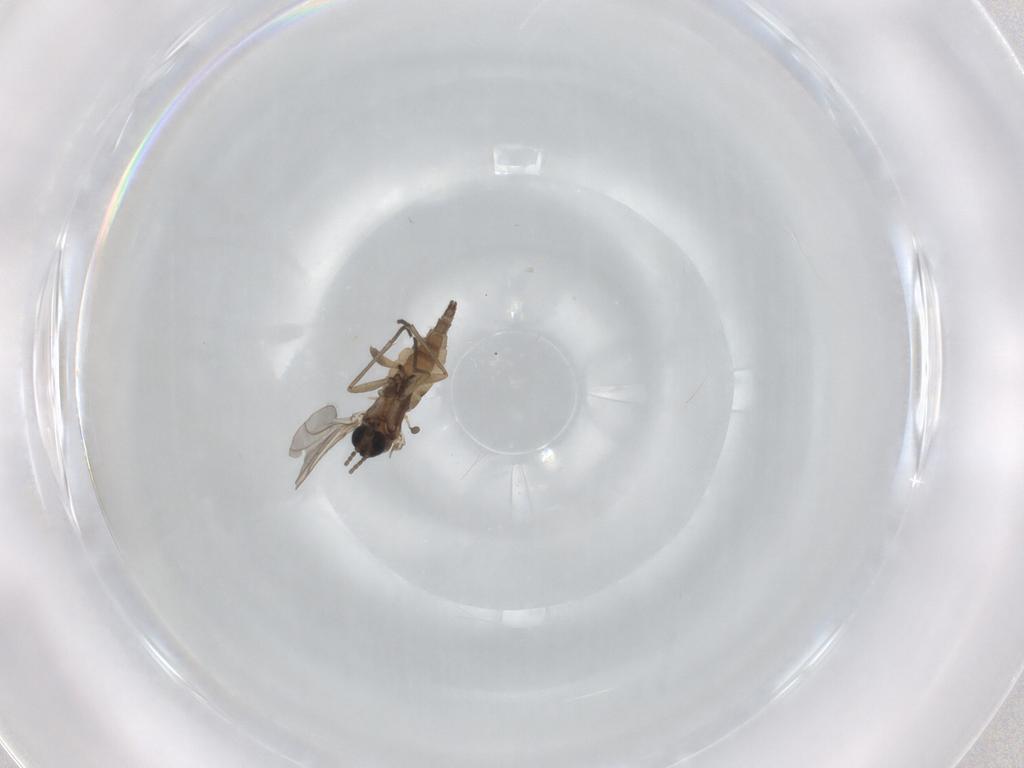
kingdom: Animalia
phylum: Arthropoda
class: Insecta
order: Diptera
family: Sciaridae
